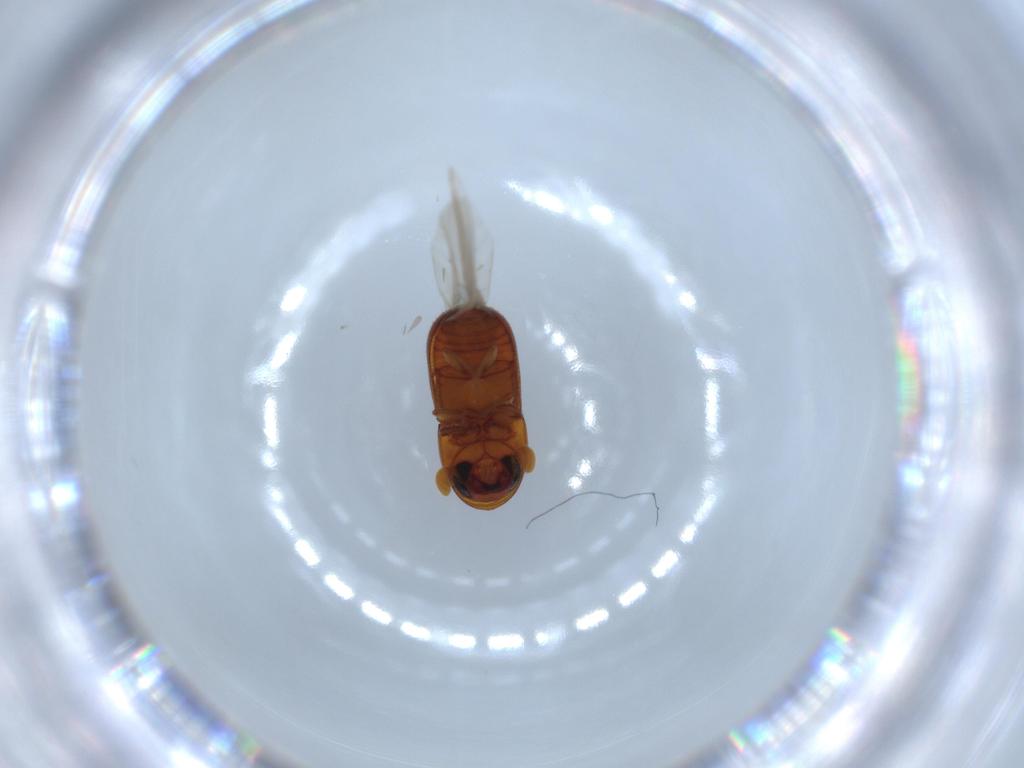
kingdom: Animalia
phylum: Arthropoda
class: Insecta
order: Coleoptera
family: Curculionidae
